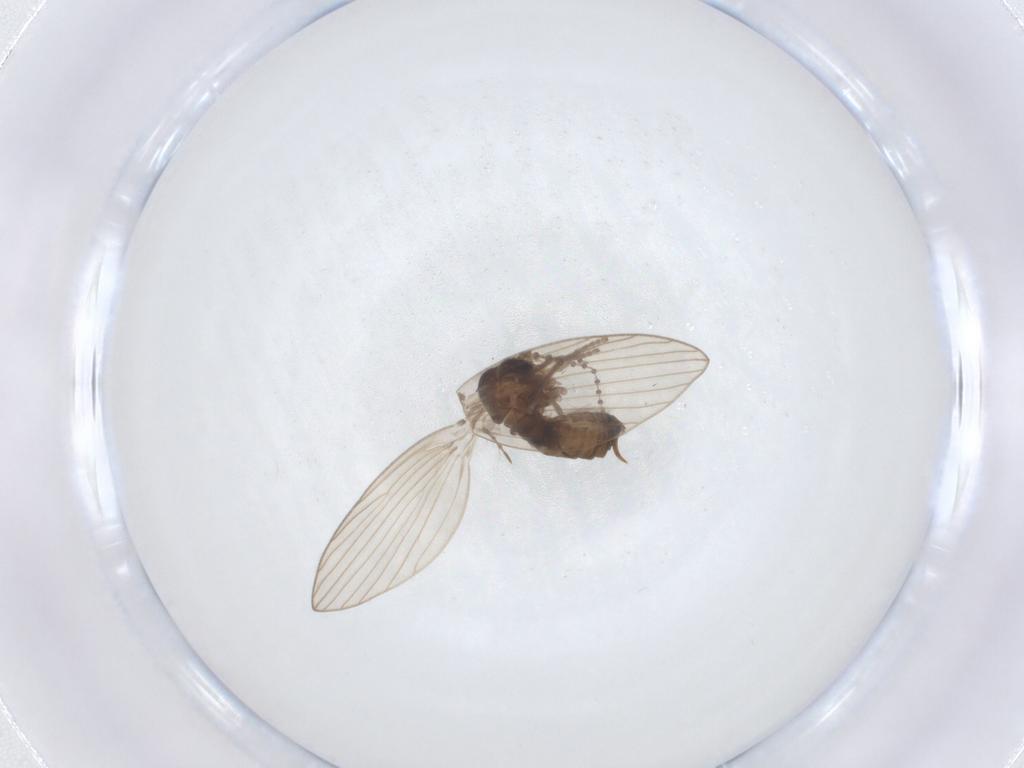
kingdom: Animalia
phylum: Arthropoda
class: Insecta
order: Diptera
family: Psychodidae
